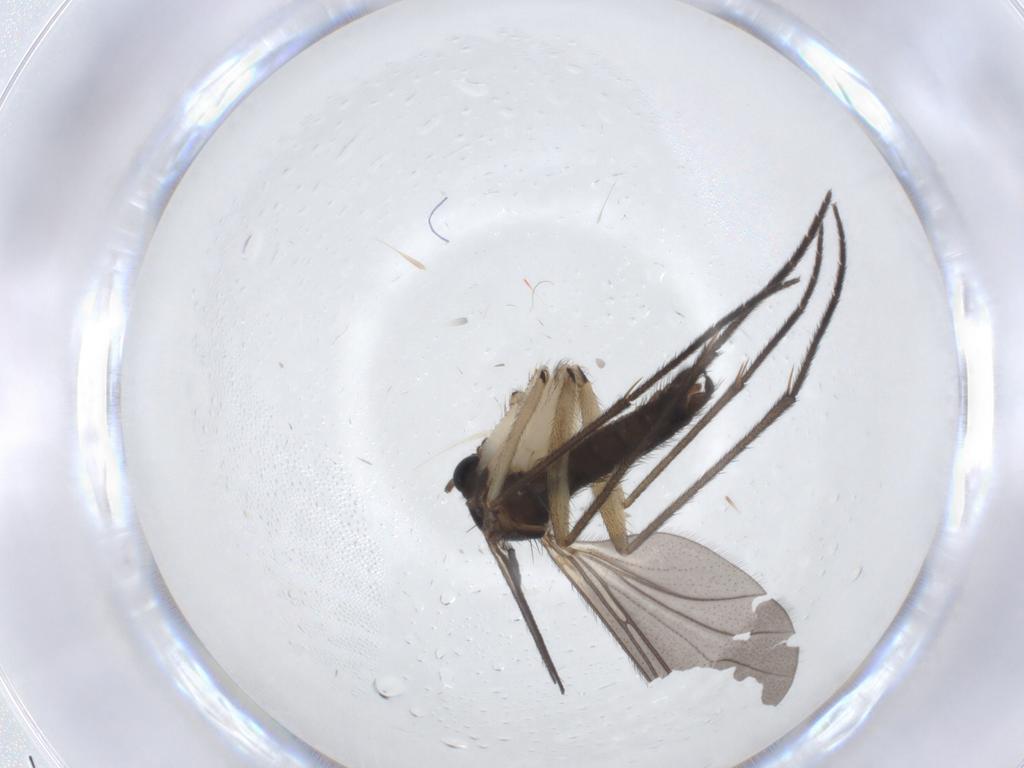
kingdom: Animalia
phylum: Arthropoda
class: Insecta
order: Diptera
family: Sciaridae
